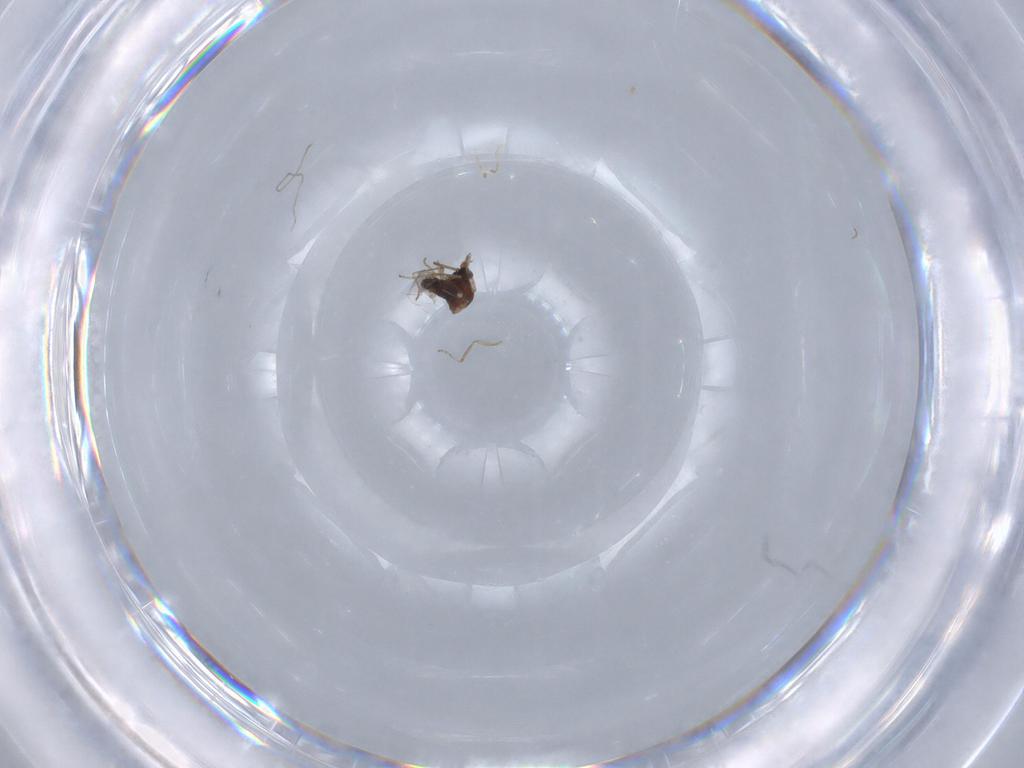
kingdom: Animalia
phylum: Arthropoda
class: Insecta
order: Diptera
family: Ceratopogonidae
